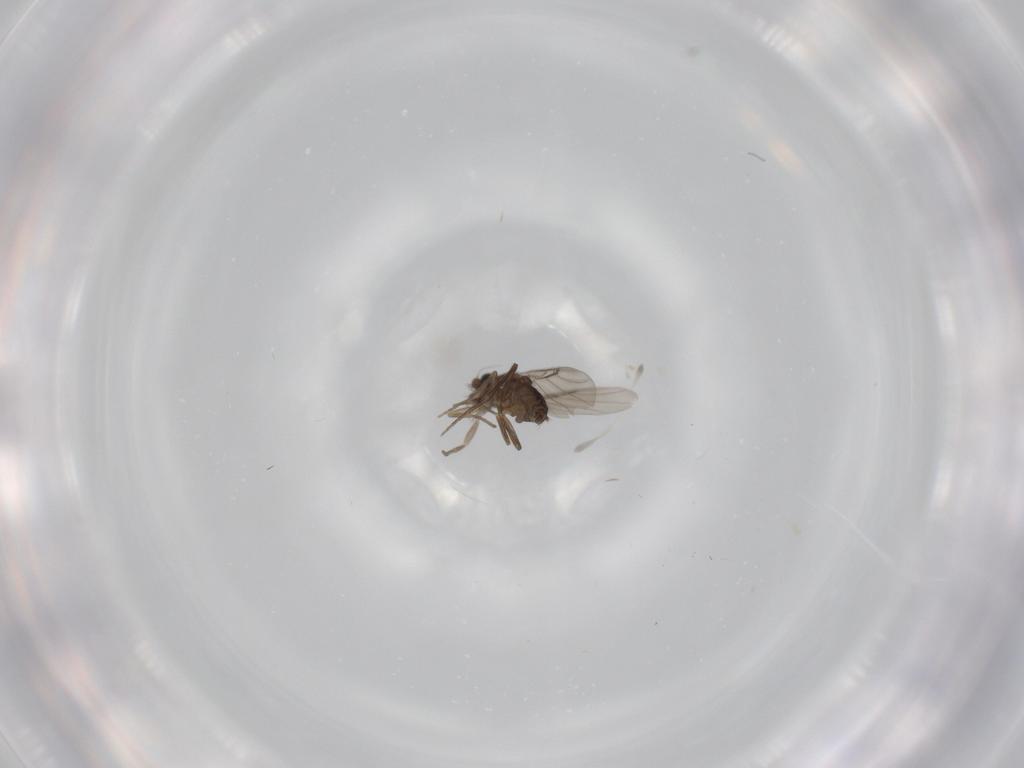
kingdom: Animalia
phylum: Arthropoda
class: Insecta
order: Diptera
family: Phoridae
